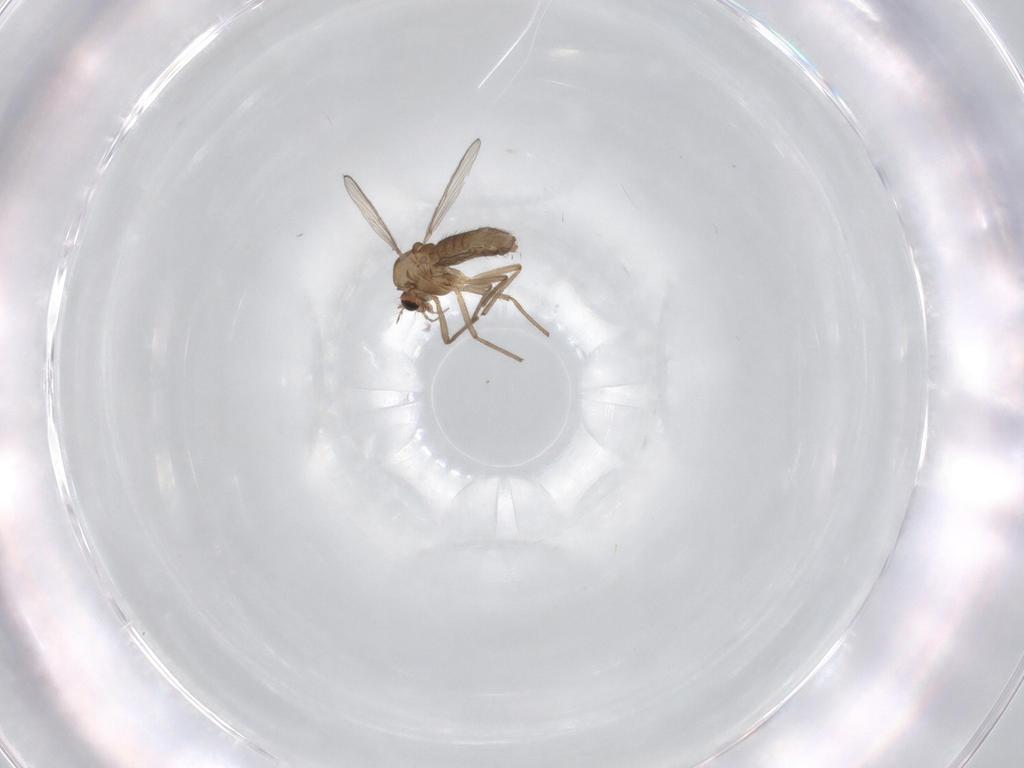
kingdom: Animalia
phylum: Arthropoda
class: Insecta
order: Diptera
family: Chironomidae
